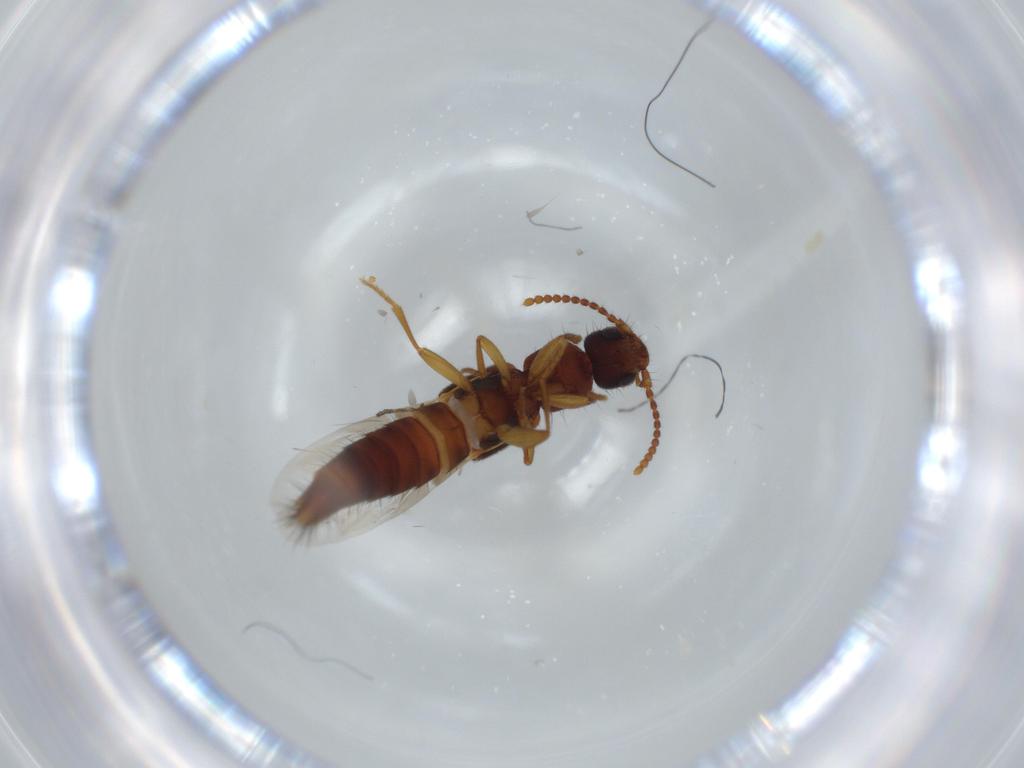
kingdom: Animalia
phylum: Arthropoda
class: Insecta
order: Coleoptera
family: Staphylinidae
